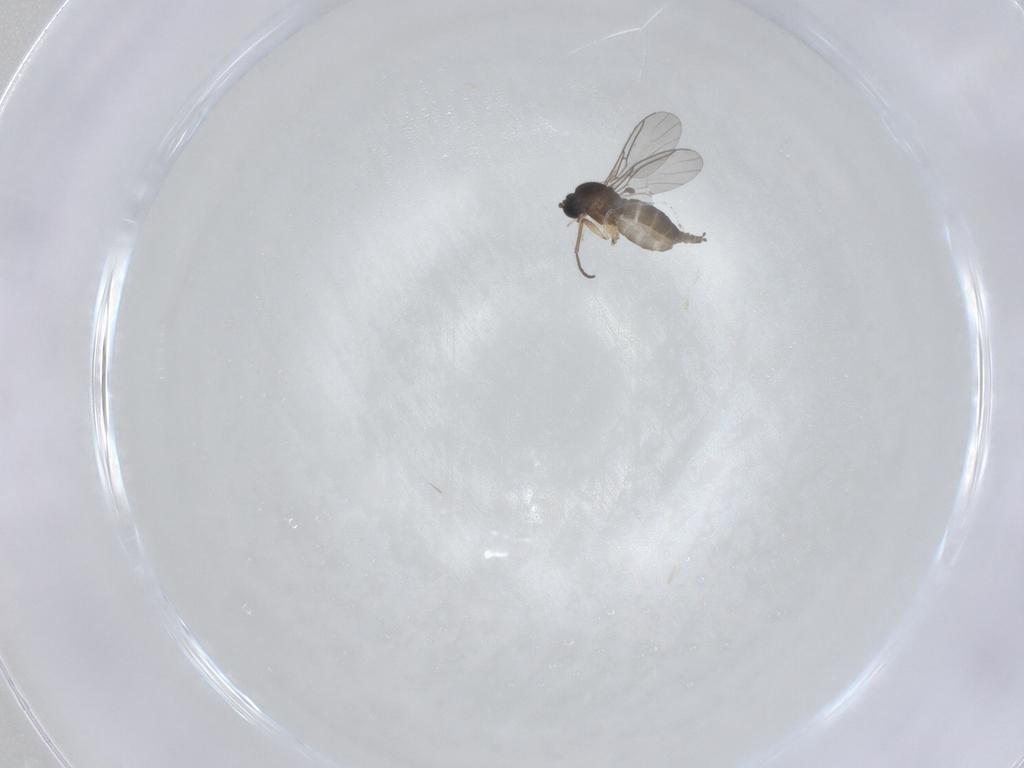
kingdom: Animalia
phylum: Arthropoda
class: Insecta
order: Diptera
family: Sciaridae
